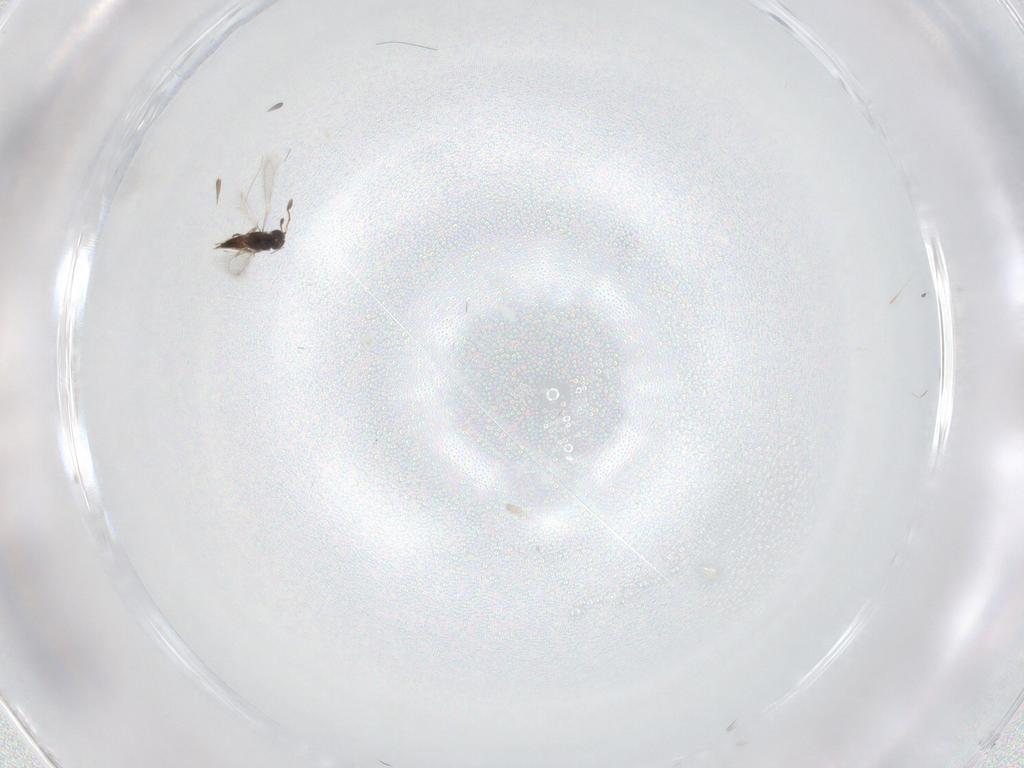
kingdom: Animalia
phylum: Arthropoda
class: Insecta
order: Hymenoptera
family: Mymaridae
